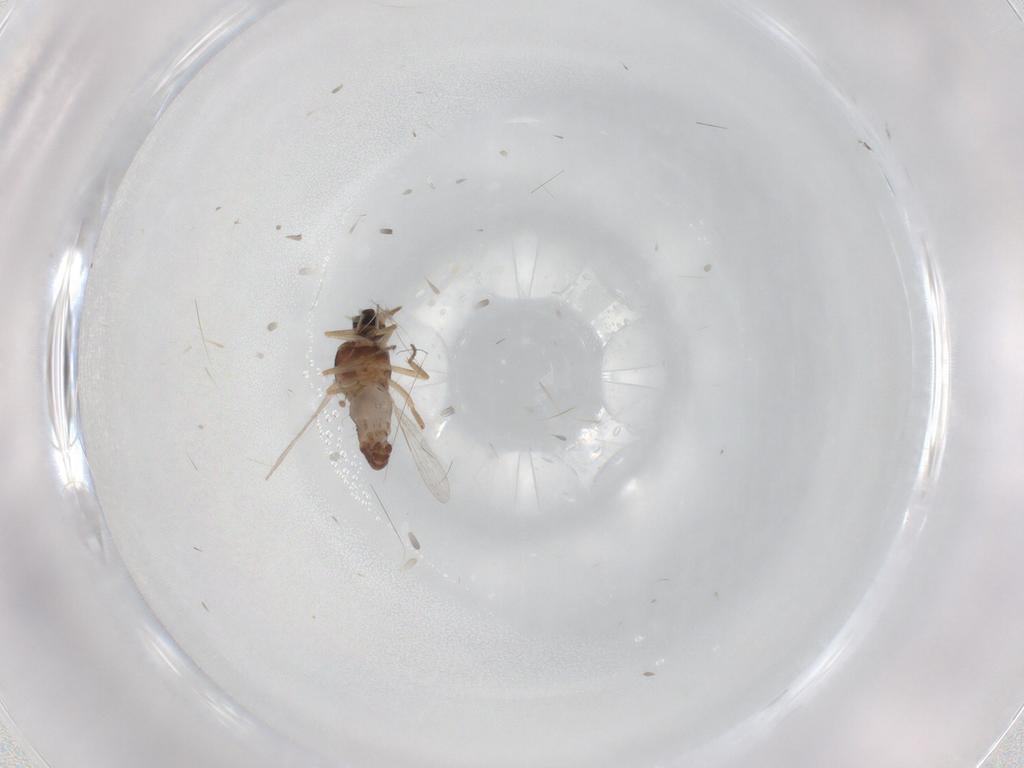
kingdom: Animalia
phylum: Arthropoda
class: Insecta
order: Diptera
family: Ceratopogonidae
